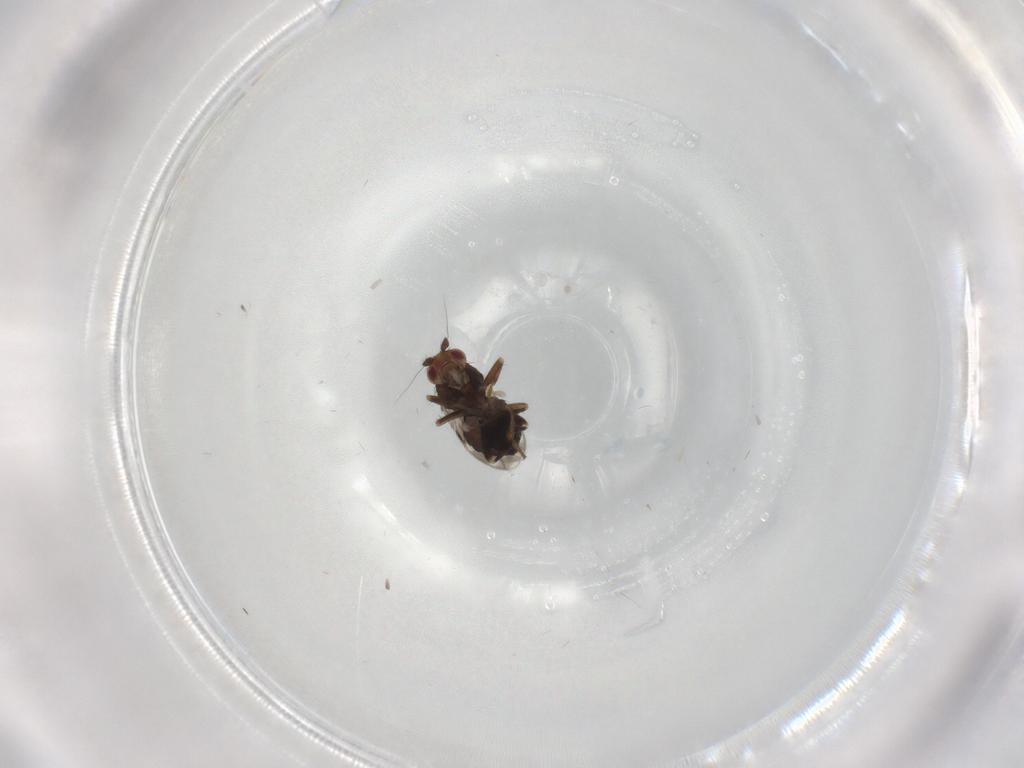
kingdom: Animalia
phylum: Arthropoda
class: Insecta
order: Diptera
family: Sphaeroceridae
